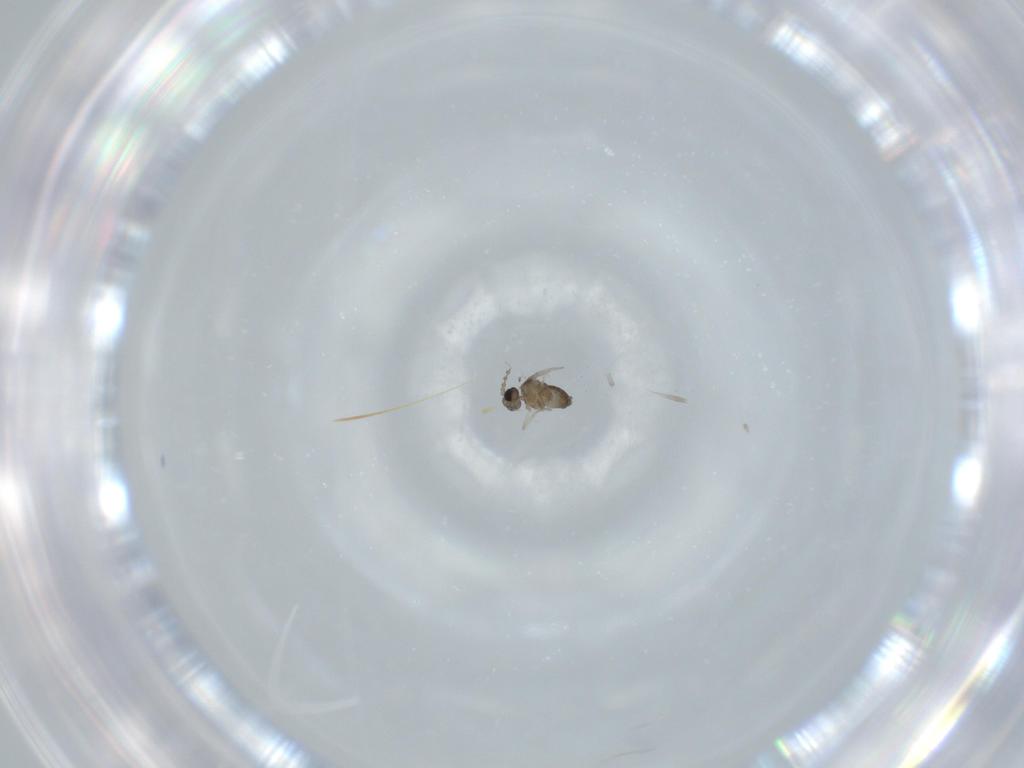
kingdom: Animalia
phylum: Arthropoda
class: Insecta
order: Diptera
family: Cecidomyiidae
